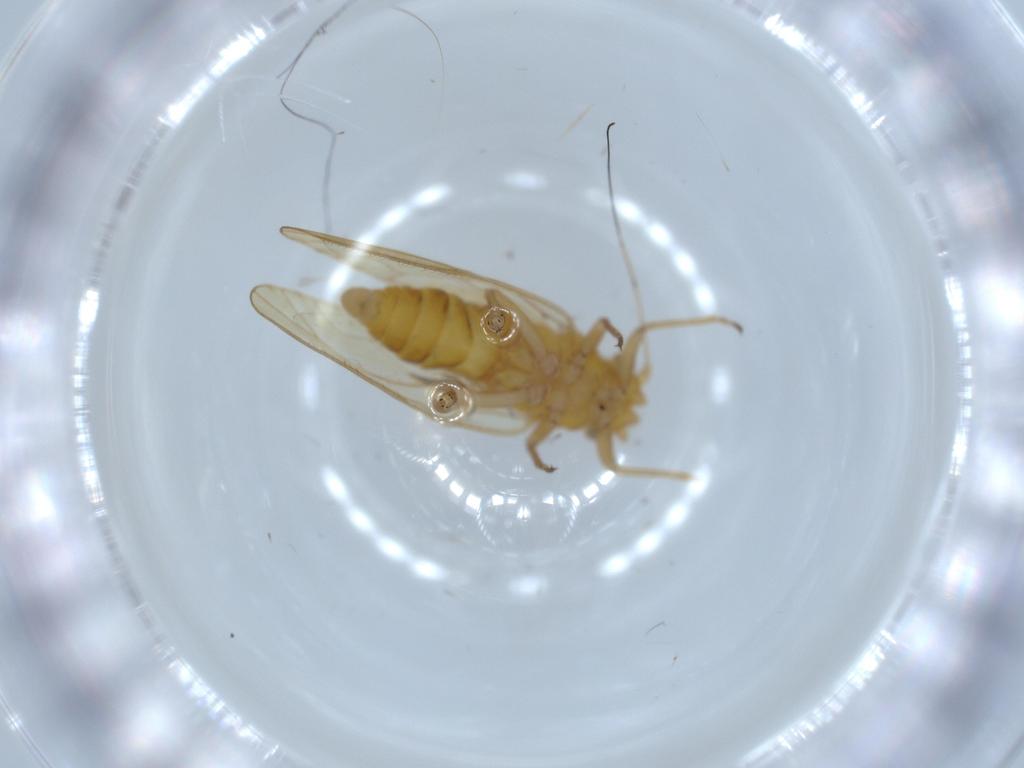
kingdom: Animalia
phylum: Arthropoda
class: Insecta
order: Hemiptera
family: Psyllidae
